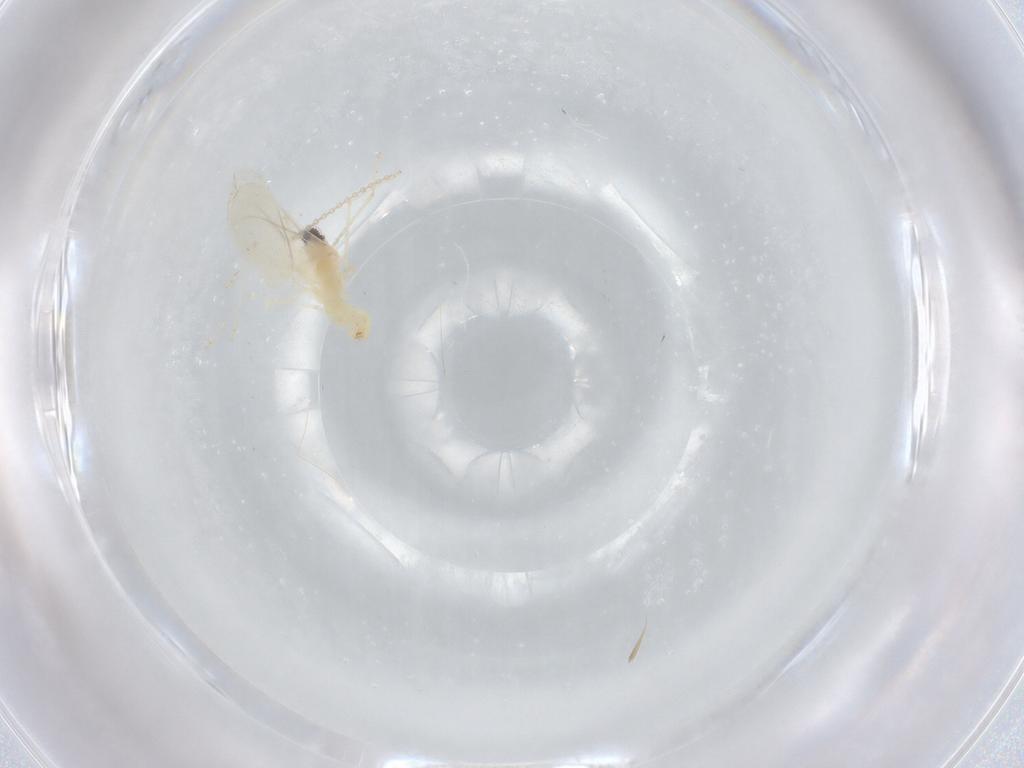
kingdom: Animalia
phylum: Arthropoda
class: Insecta
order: Diptera
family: Cecidomyiidae
